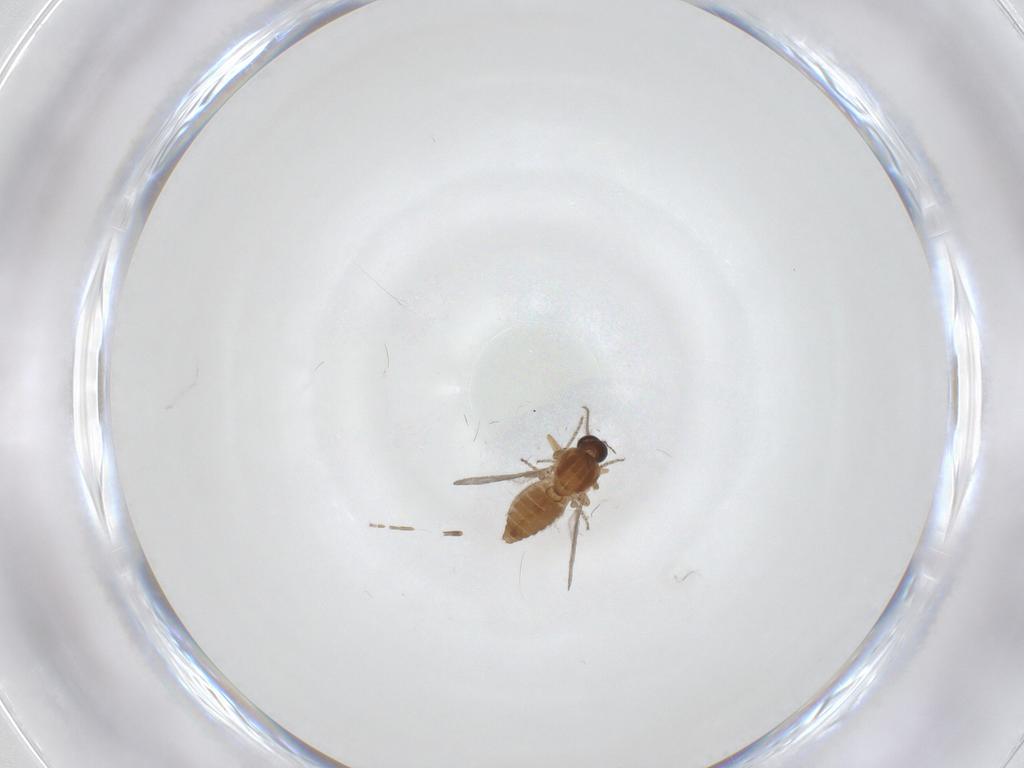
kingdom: Animalia
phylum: Arthropoda
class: Insecta
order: Diptera
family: Ceratopogonidae
